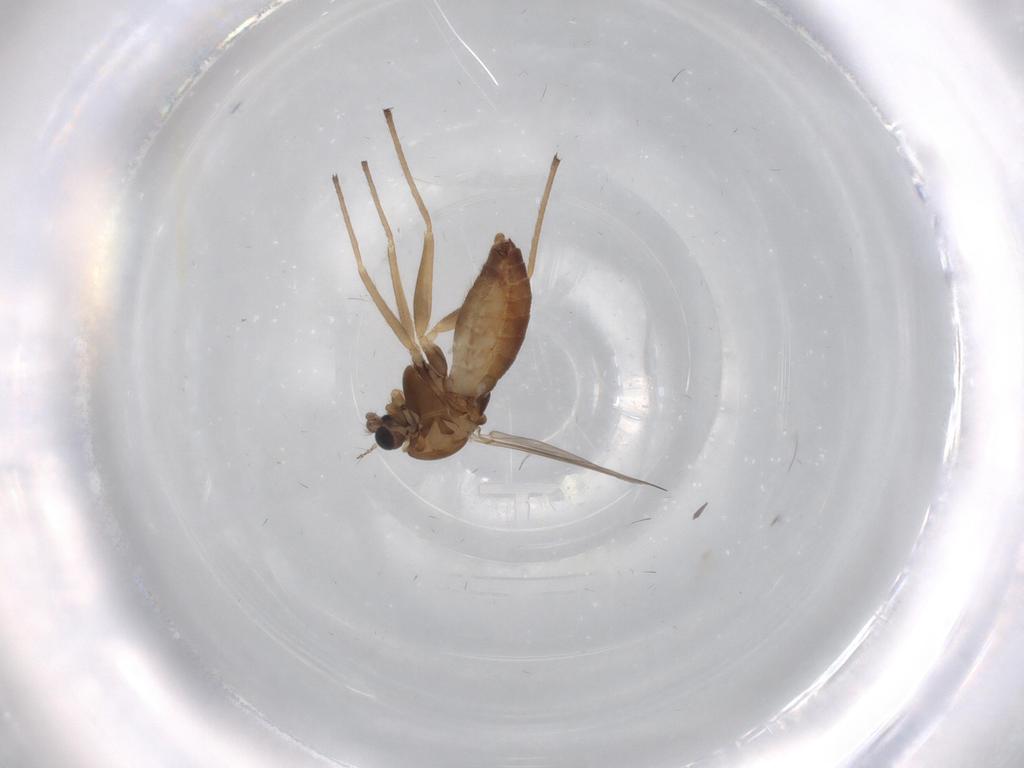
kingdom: Animalia
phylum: Arthropoda
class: Insecta
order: Diptera
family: Chironomidae
